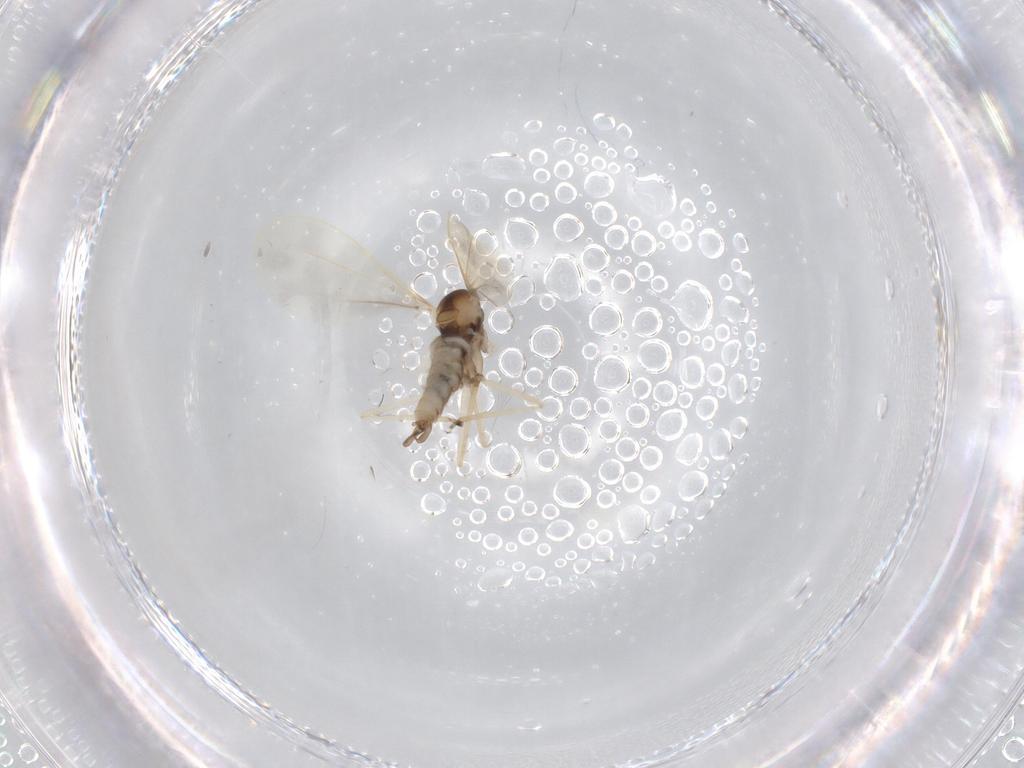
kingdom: Animalia
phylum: Arthropoda
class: Insecta
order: Diptera
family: Cecidomyiidae
